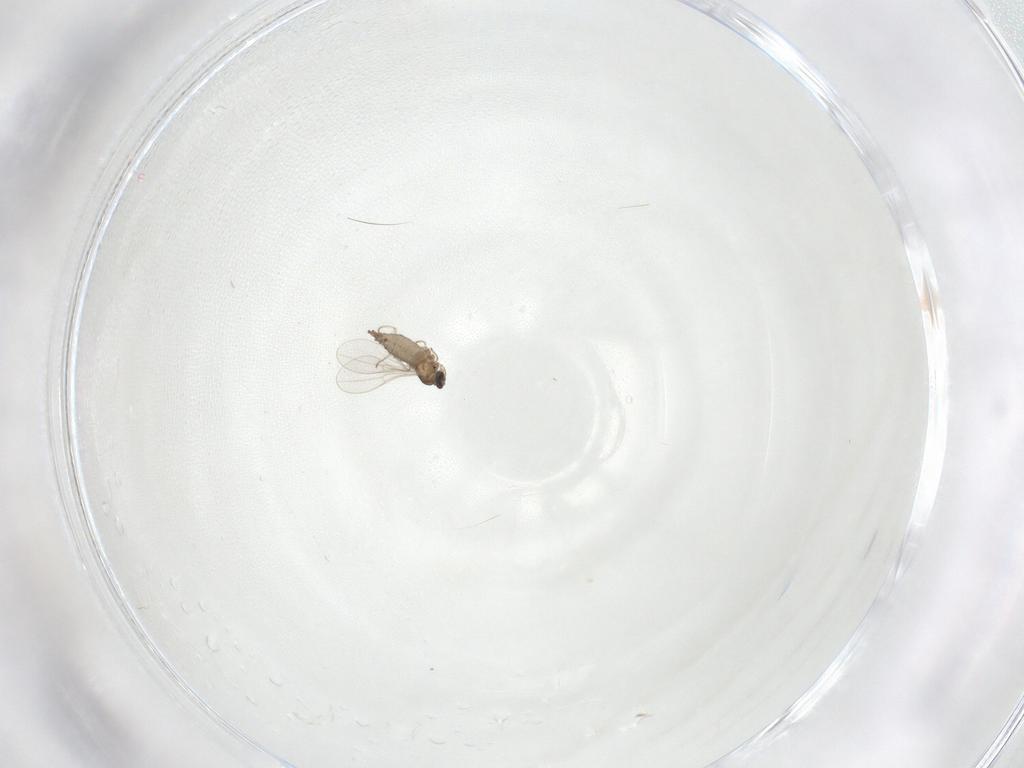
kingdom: Animalia
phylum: Arthropoda
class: Insecta
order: Diptera
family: Cecidomyiidae
